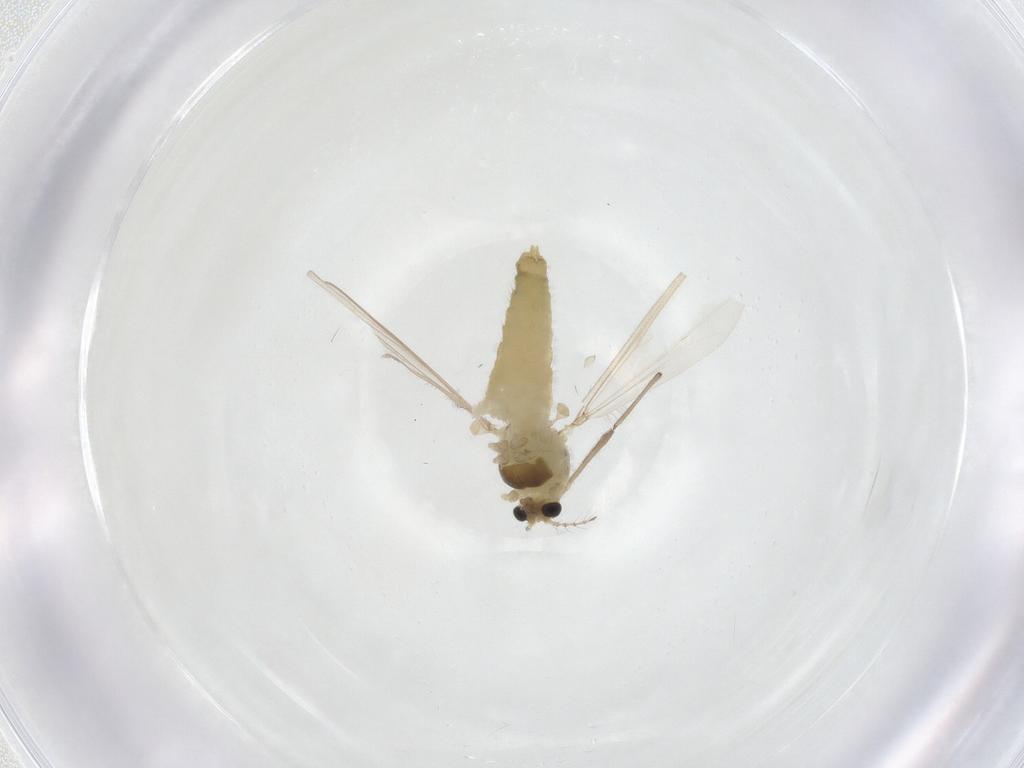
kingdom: Animalia
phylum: Arthropoda
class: Insecta
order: Diptera
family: Chironomidae
